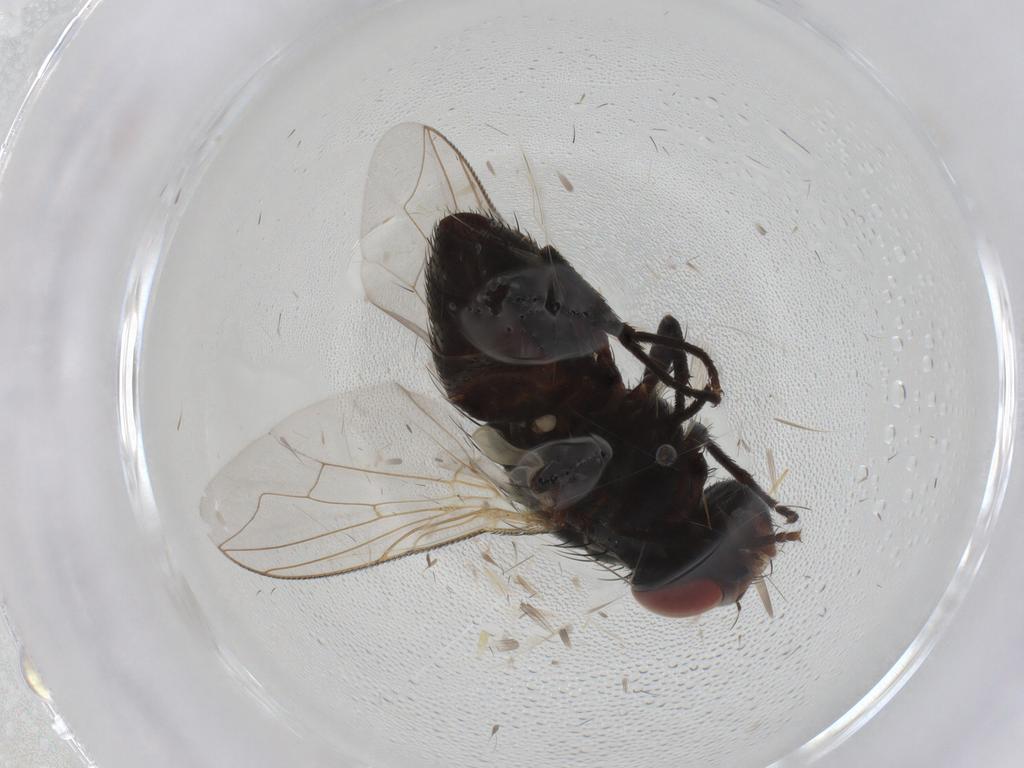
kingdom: Animalia
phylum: Arthropoda
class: Insecta
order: Diptera
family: Sarcophagidae
